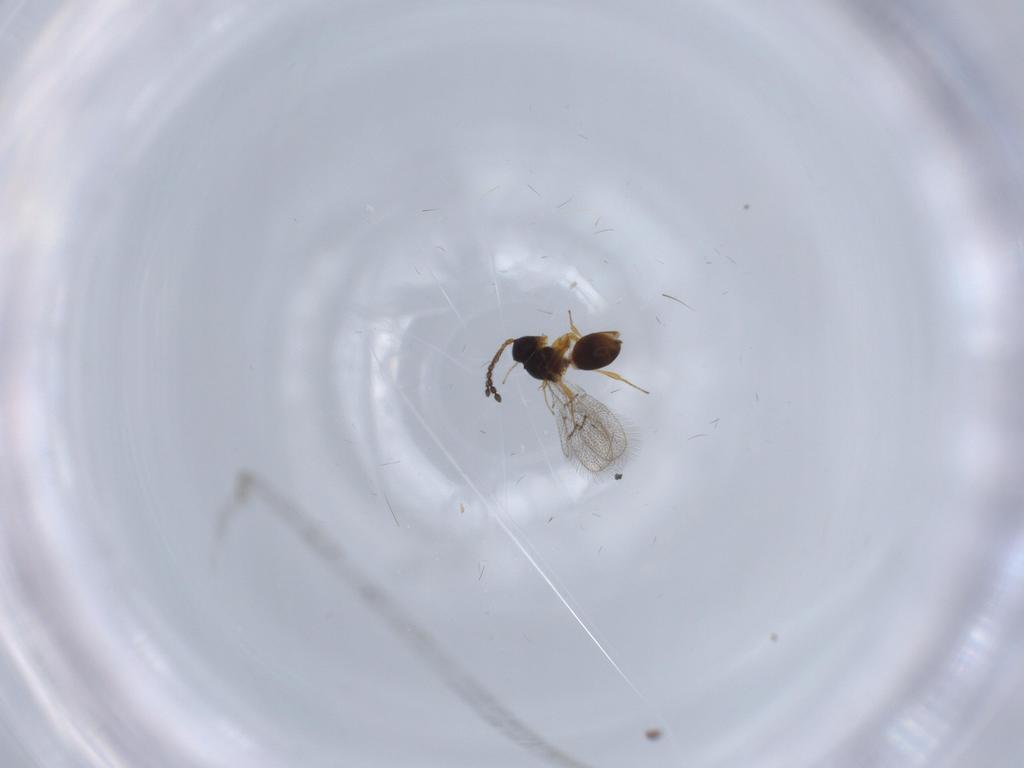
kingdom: Animalia
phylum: Arthropoda
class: Insecta
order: Hymenoptera
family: Figitidae
